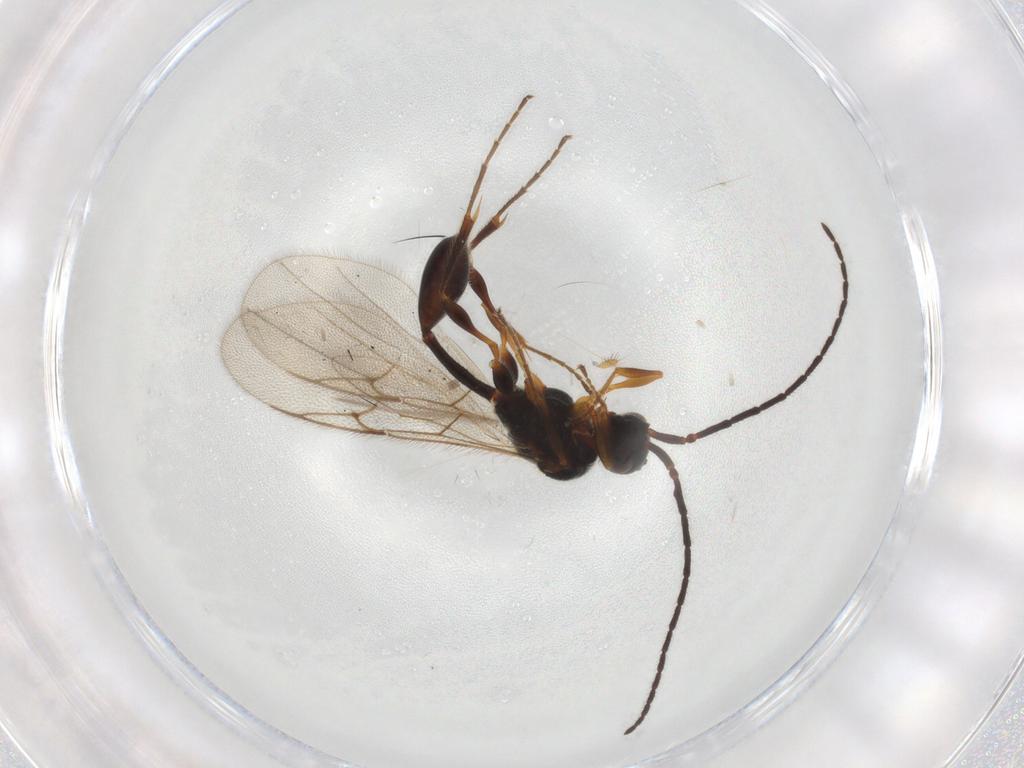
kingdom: Animalia
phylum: Arthropoda
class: Insecta
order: Hymenoptera
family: Diapriidae
